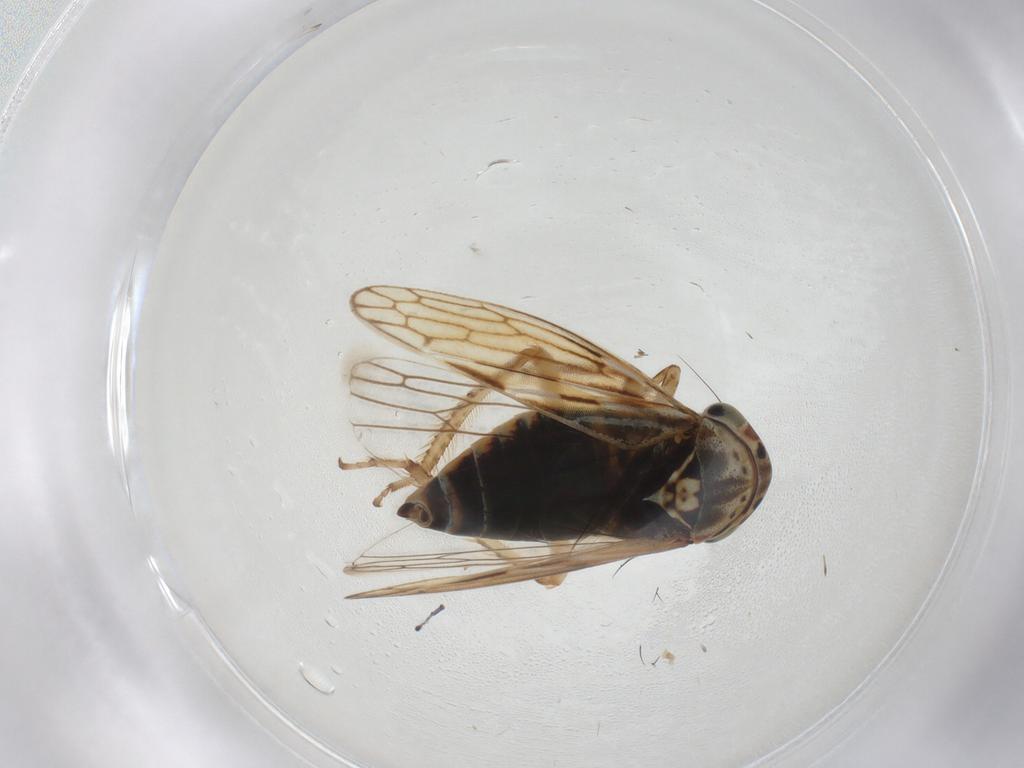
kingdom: Animalia
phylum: Arthropoda
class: Insecta
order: Hemiptera
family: Cicadellidae
